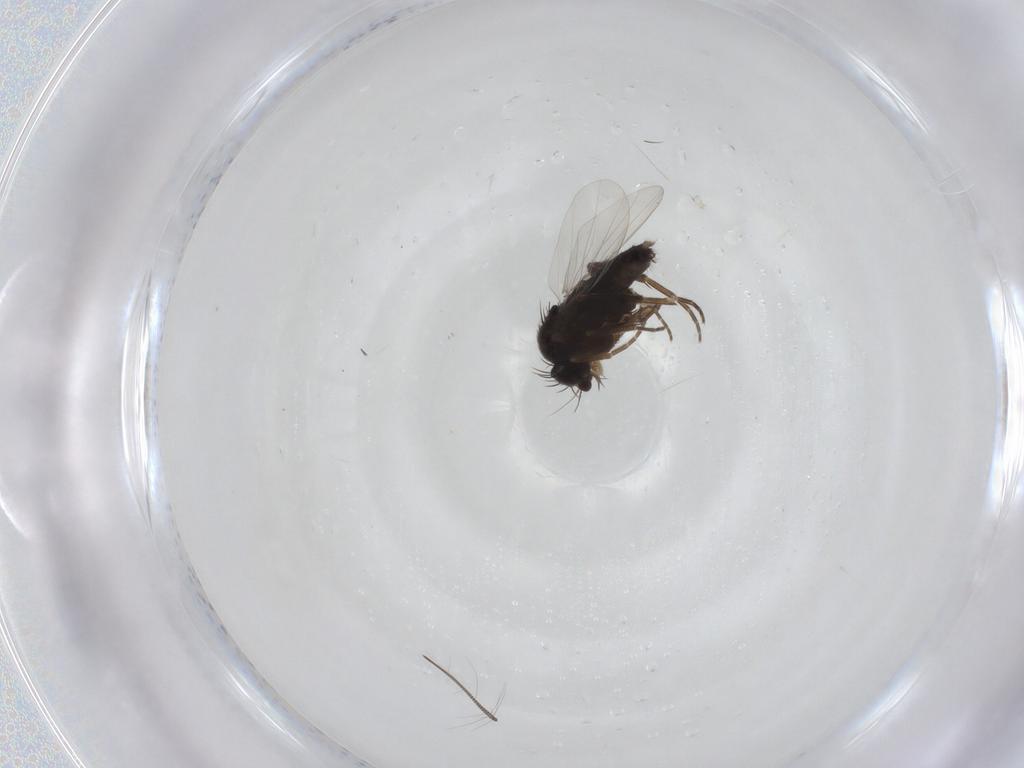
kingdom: Animalia
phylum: Arthropoda
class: Insecta
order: Diptera
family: Phoridae
